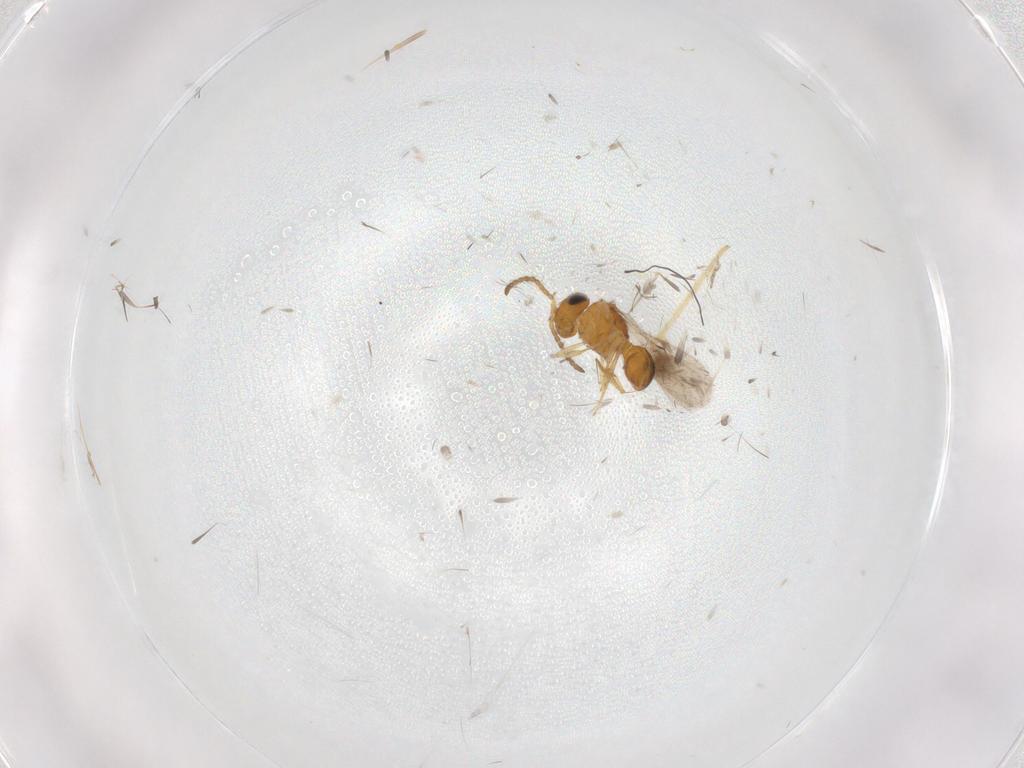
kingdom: Animalia
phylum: Arthropoda
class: Insecta
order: Hymenoptera
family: Scelionidae
